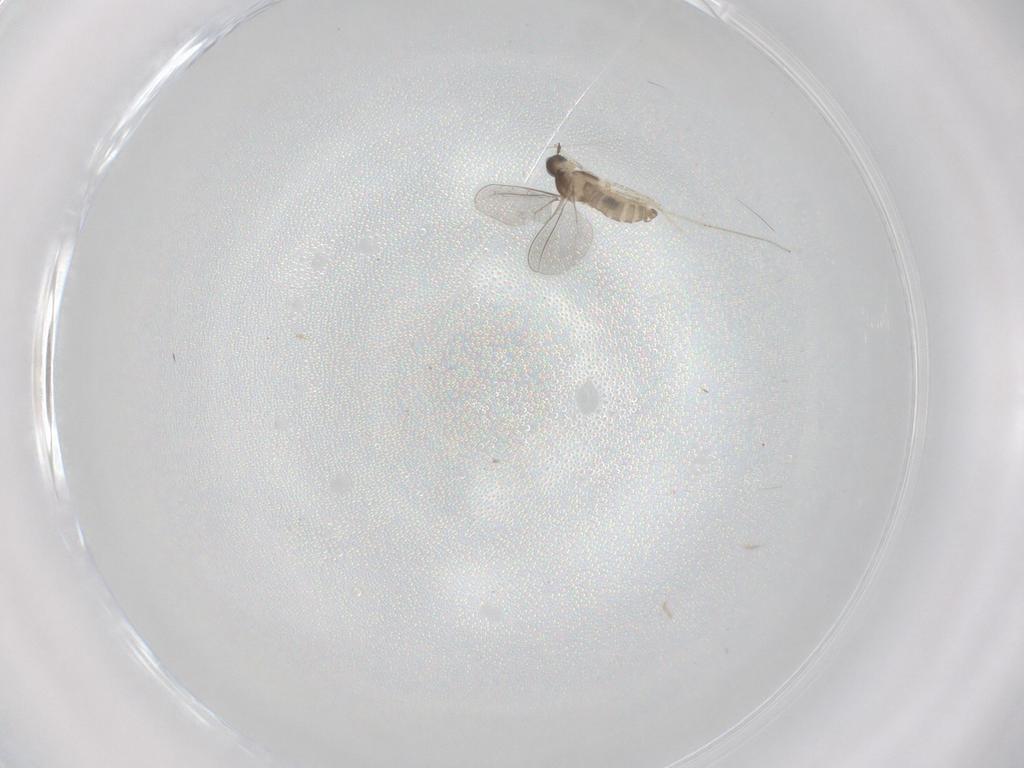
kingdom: Animalia
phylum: Arthropoda
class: Insecta
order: Diptera
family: Cecidomyiidae
